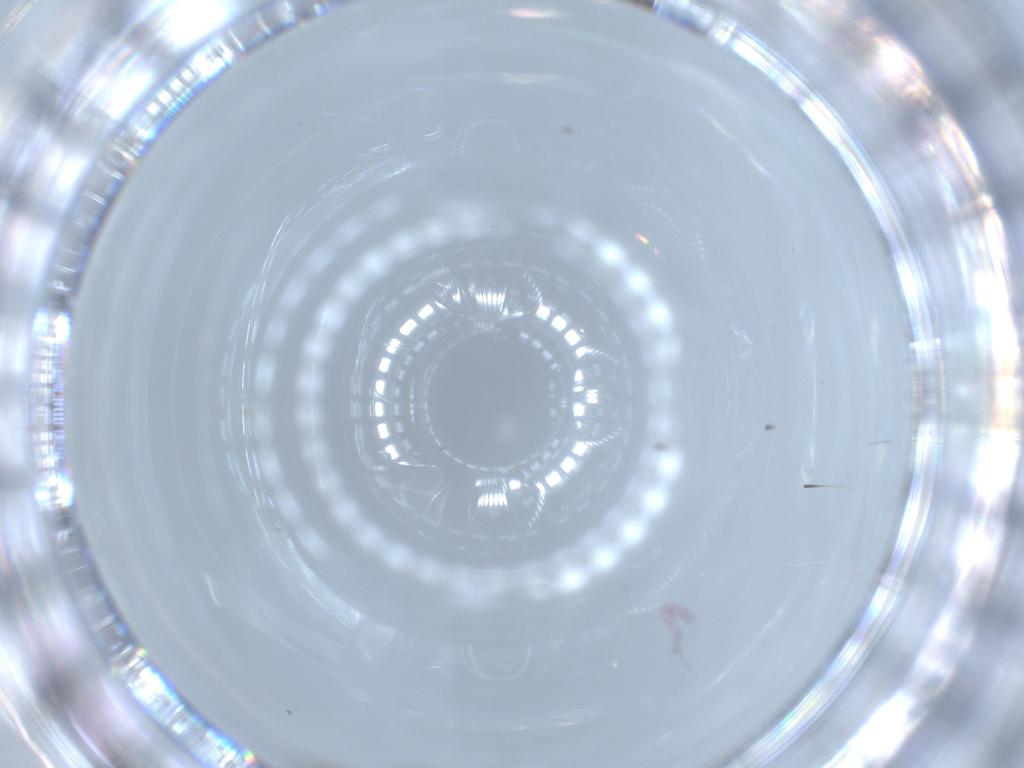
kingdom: Animalia
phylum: Arthropoda
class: Insecta
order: Diptera
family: Dolichopodidae
